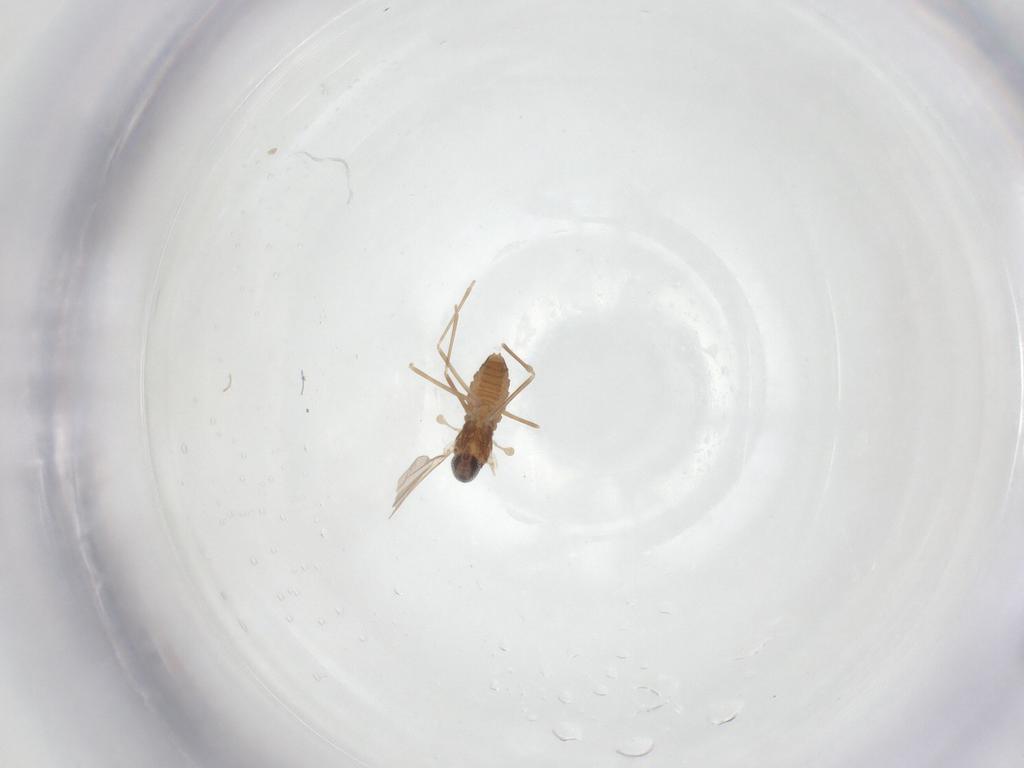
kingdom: Animalia
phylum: Arthropoda
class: Insecta
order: Diptera
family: Cecidomyiidae
